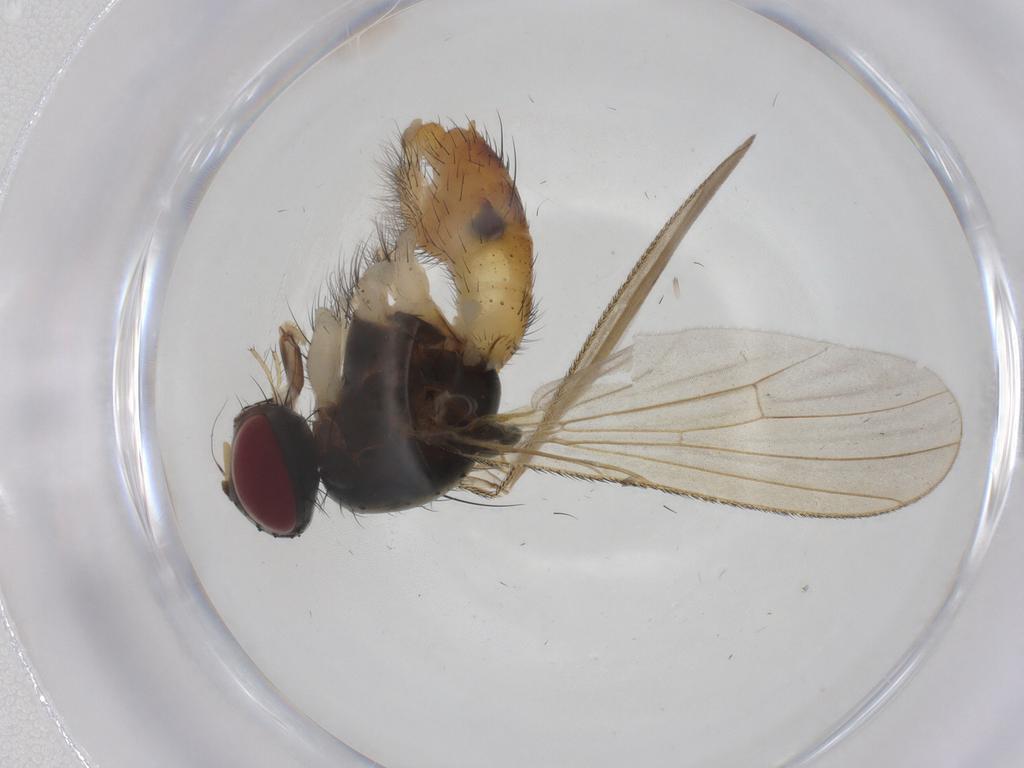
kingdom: Animalia
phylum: Arthropoda
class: Insecta
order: Diptera
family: Muscidae
